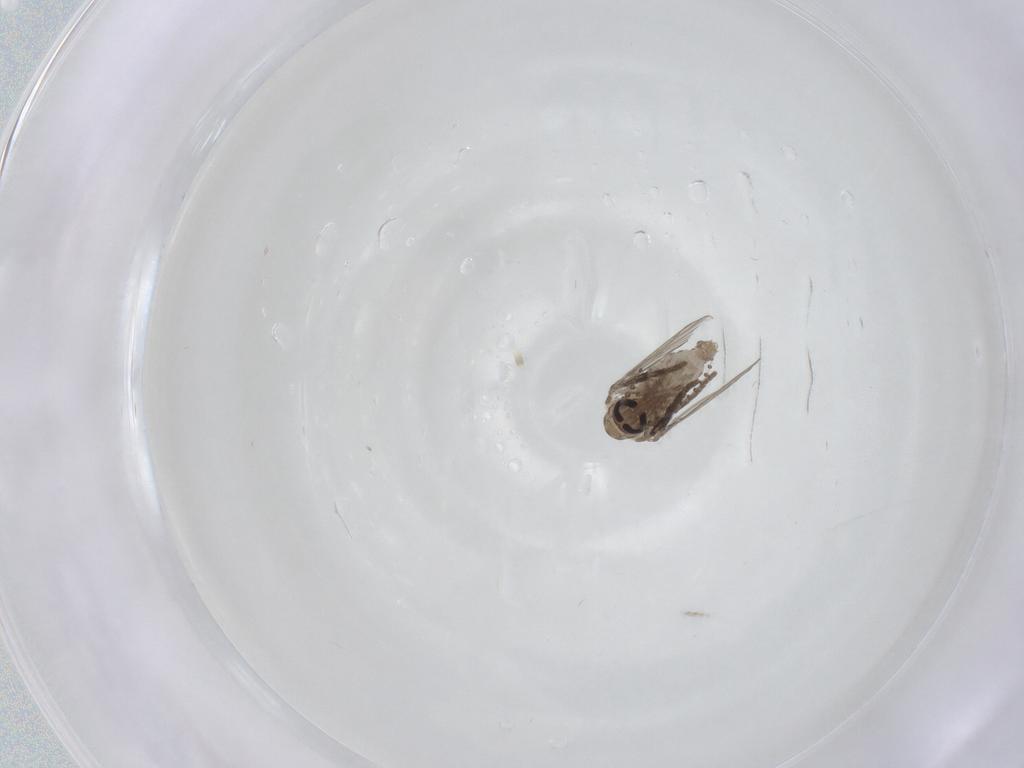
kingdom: Animalia
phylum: Arthropoda
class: Insecta
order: Diptera
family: Psychodidae
